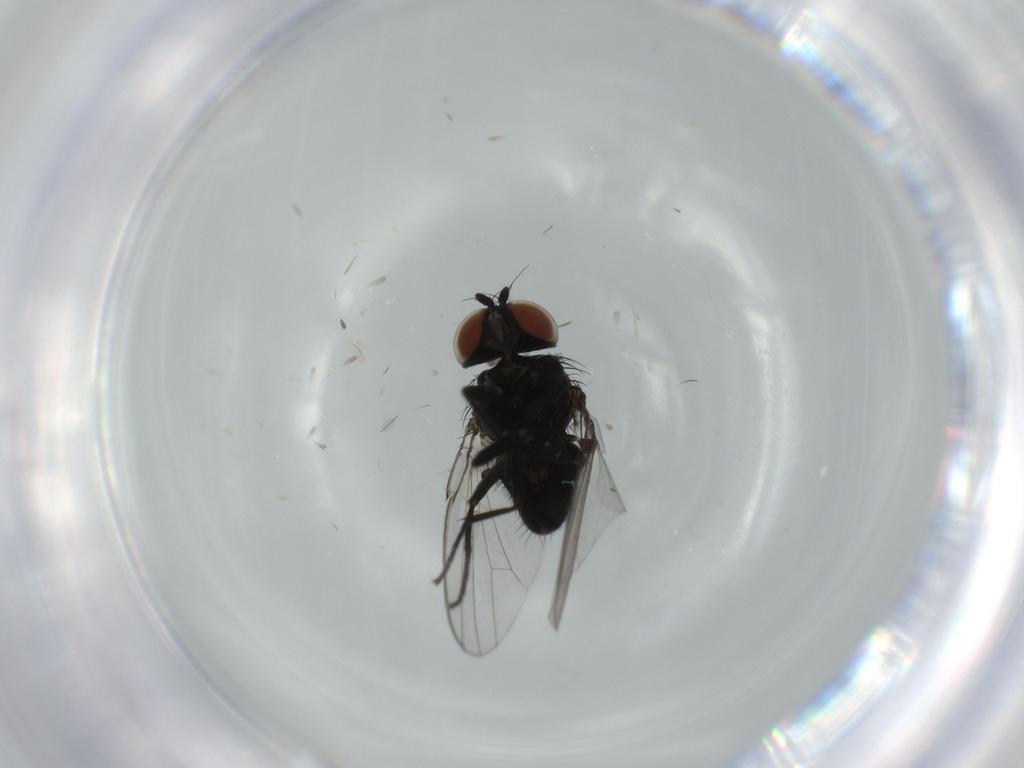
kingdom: Animalia
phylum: Arthropoda
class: Insecta
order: Diptera
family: Milichiidae
